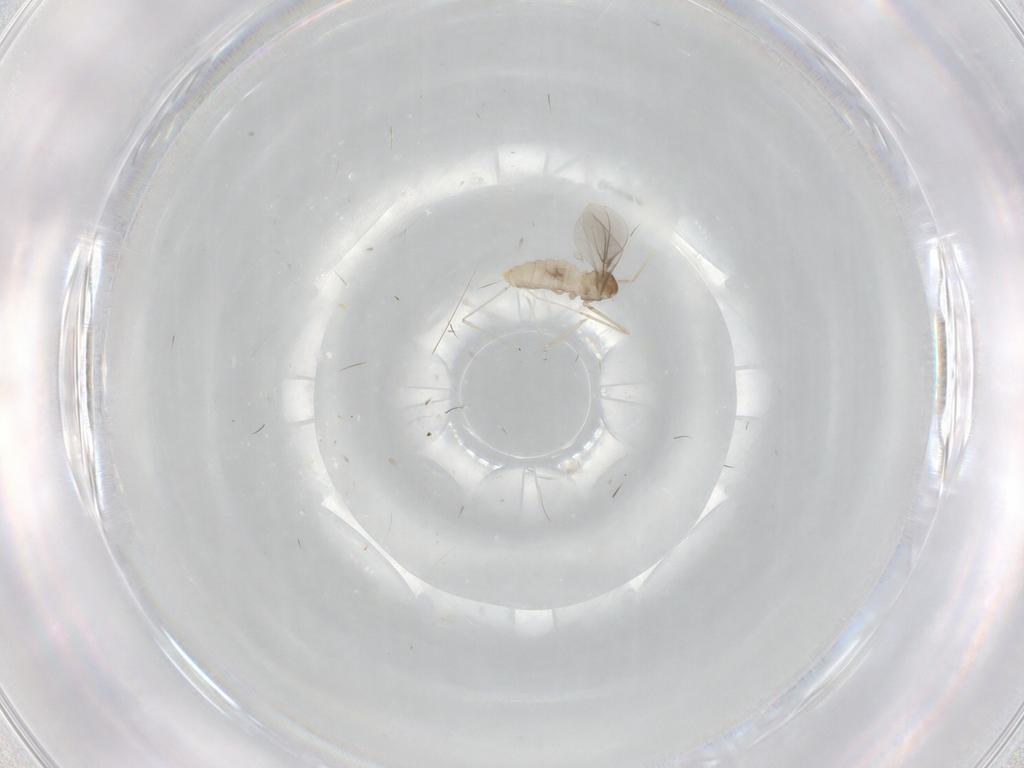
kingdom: Animalia
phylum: Arthropoda
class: Insecta
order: Diptera
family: Cecidomyiidae
